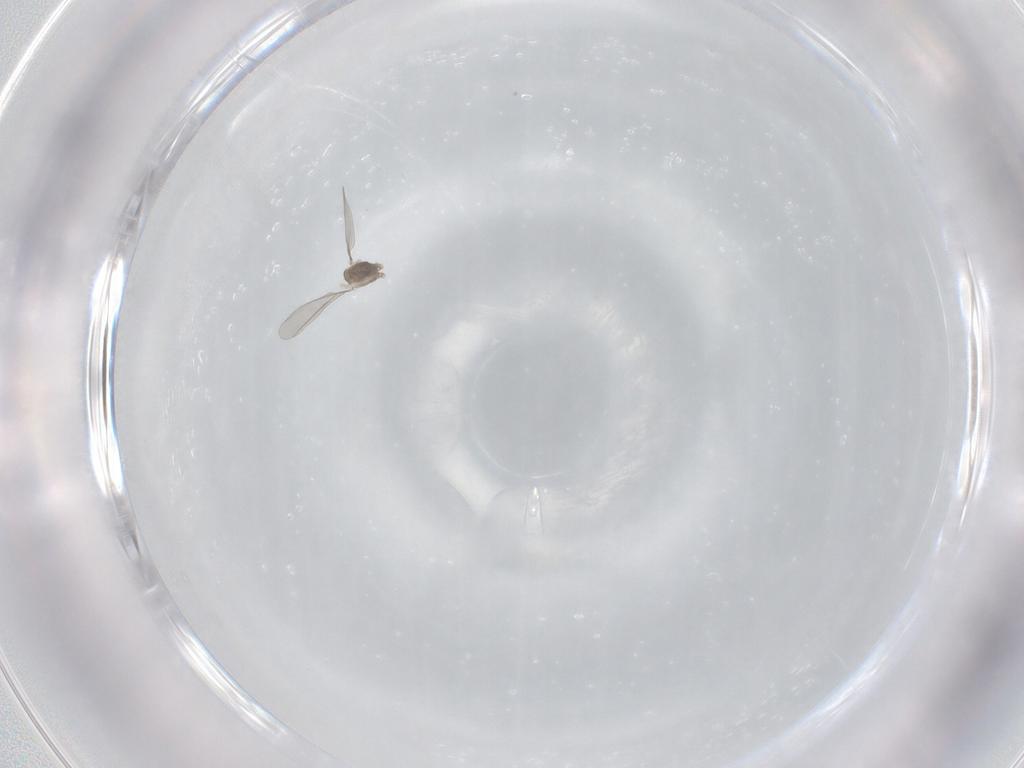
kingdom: Animalia
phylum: Arthropoda
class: Insecta
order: Diptera
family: Cecidomyiidae
